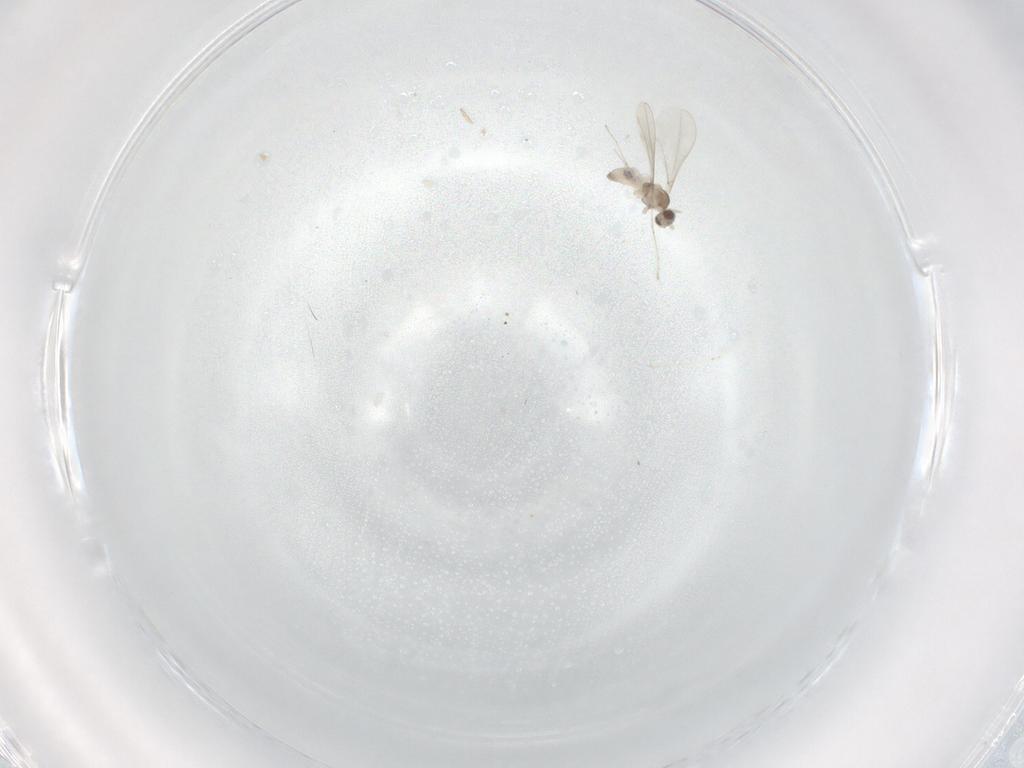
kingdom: Animalia
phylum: Arthropoda
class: Insecta
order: Diptera
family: Cecidomyiidae
